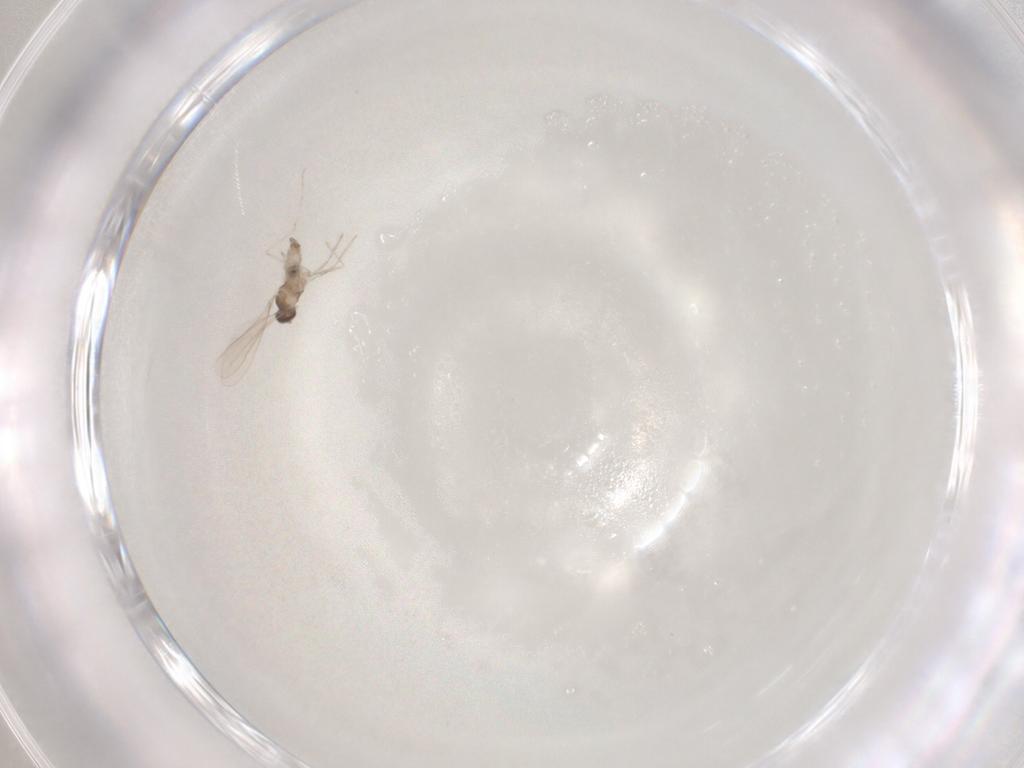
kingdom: Animalia
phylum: Arthropoda
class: Insecta
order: Diptera
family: Cecidomyiidae
